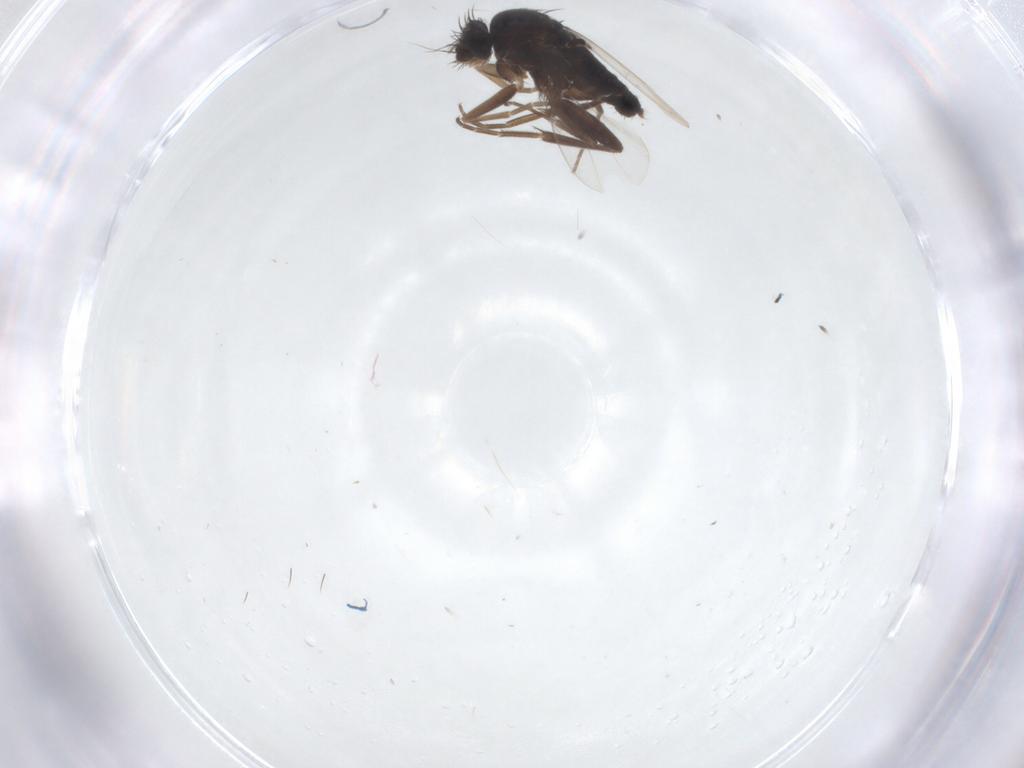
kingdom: Animalia
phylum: Arthropoda
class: Insecta
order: Diptera
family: Phoridae
